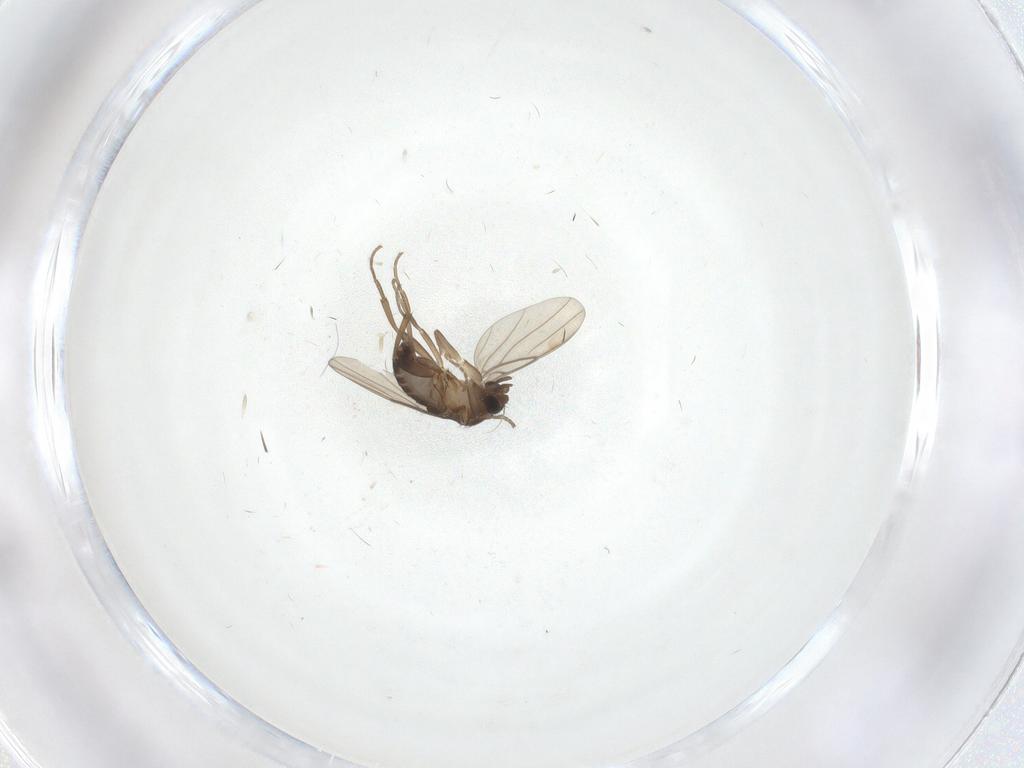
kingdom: Animalia
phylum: Arthropoda
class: Insecta
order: Diptera
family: Phoridae
